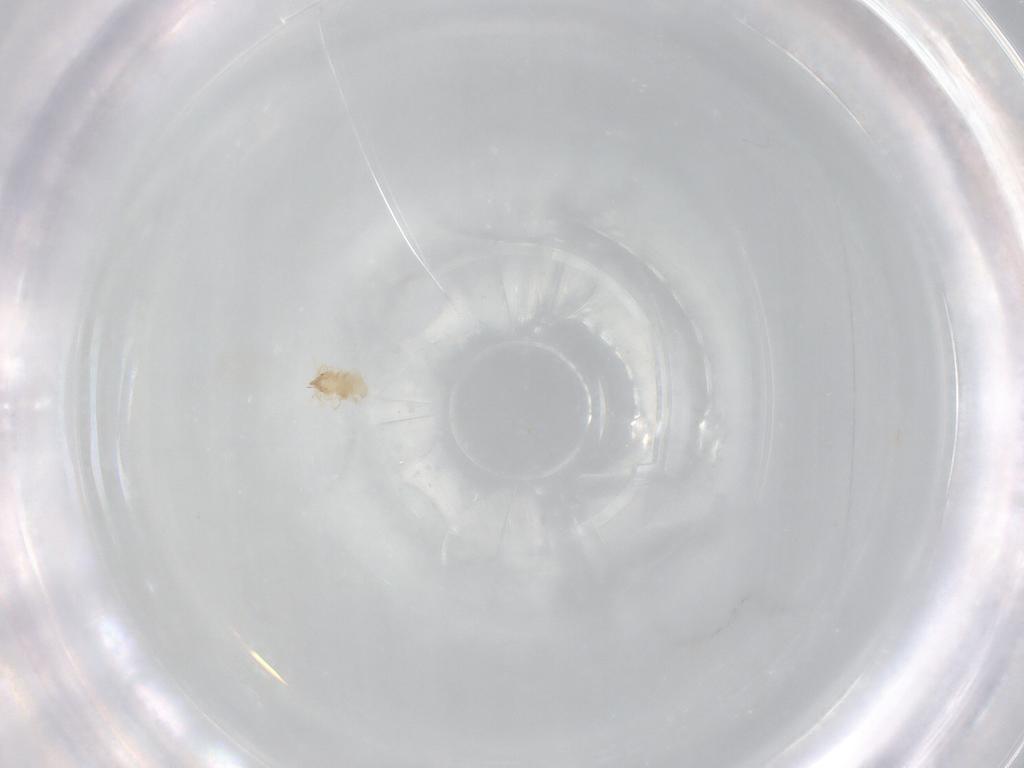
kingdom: Animalia
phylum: Arthropoda
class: Insecta
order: Neuroptera
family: Coniopterygidae
